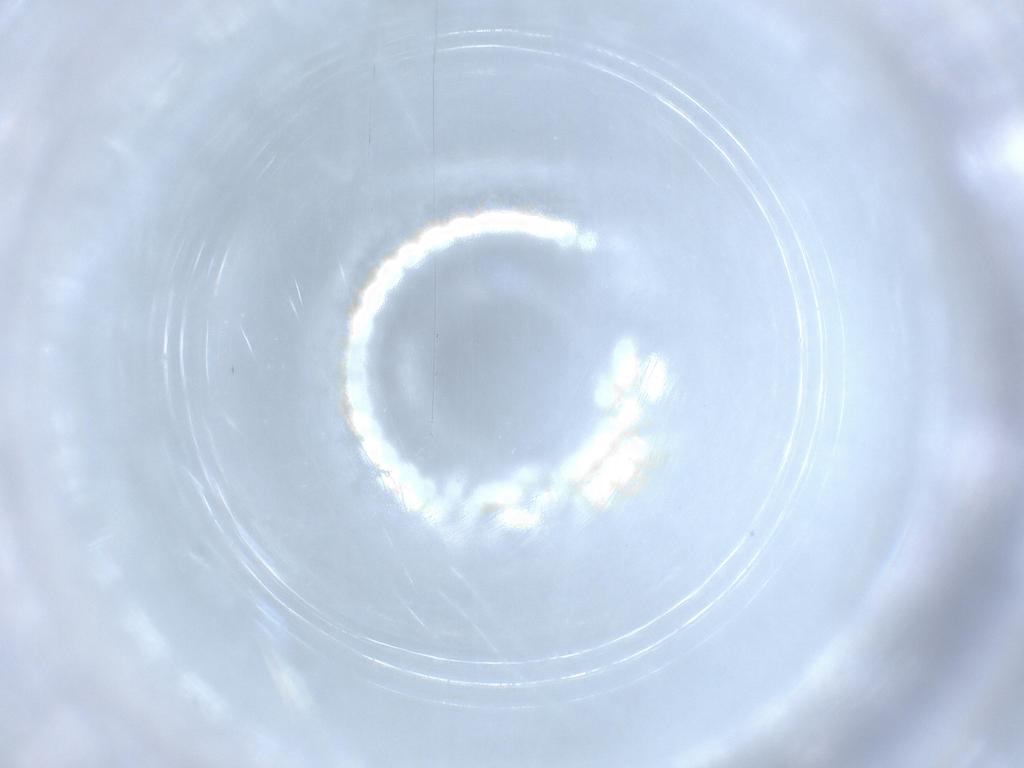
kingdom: Animalia
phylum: Arthropoda
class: Insecta
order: Diptera
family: Cecidomyiidae
